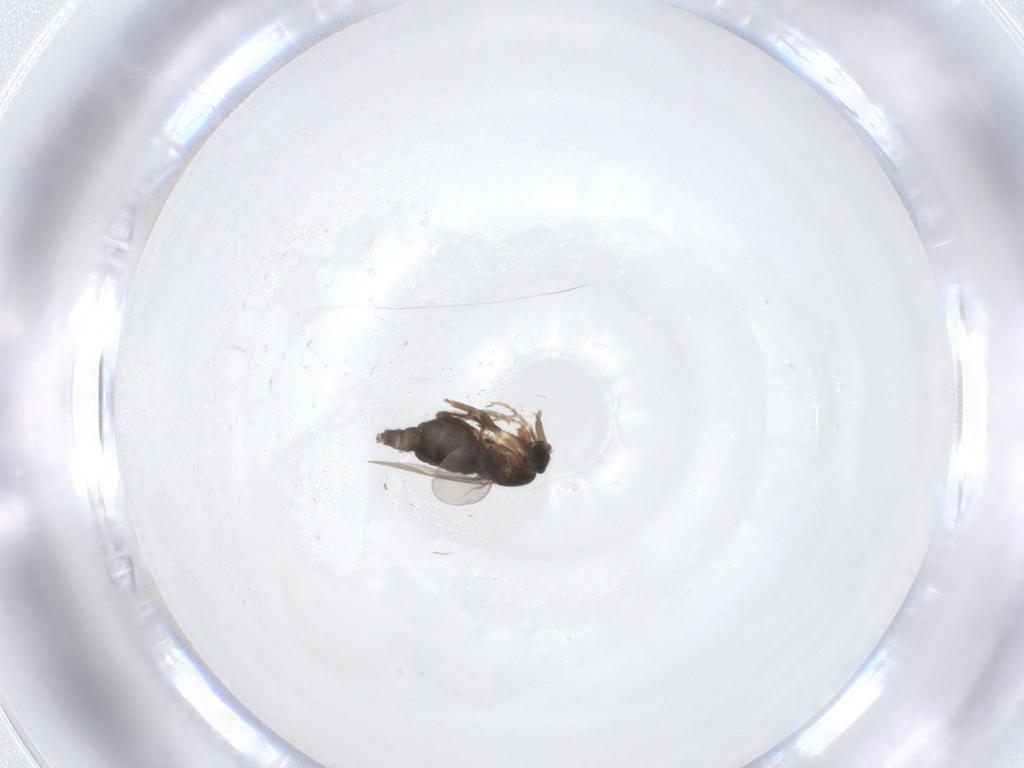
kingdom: Animalia
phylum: Arthropoda
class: Insecta
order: Diptera
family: Phoridae
